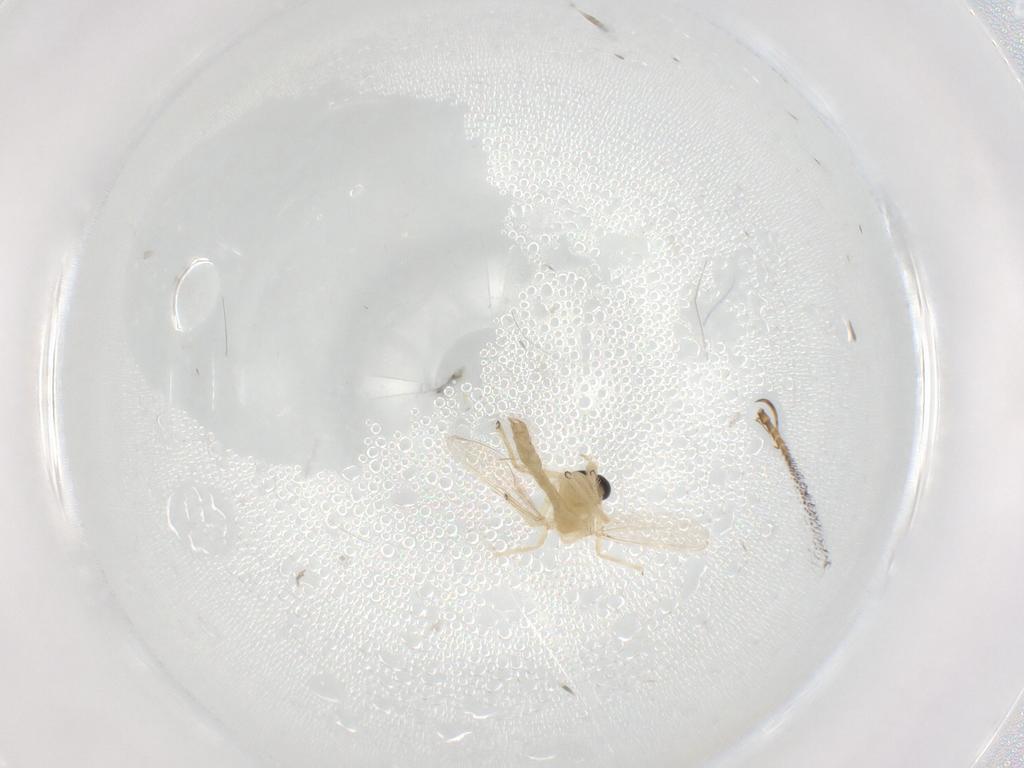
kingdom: Animalia
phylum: Arthropoda
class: Insecta
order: Diptera
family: Chironomidae
